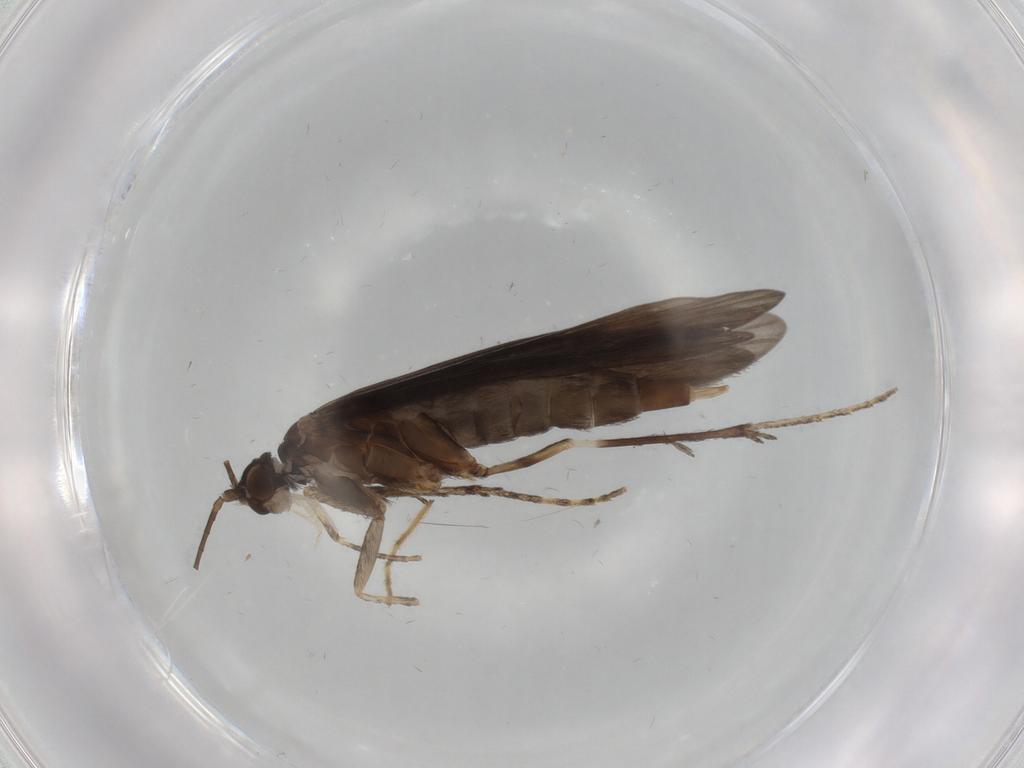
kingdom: Animalia
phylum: Arthropoda
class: Insecta
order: Trichoptera
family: Xiphocentronidae
